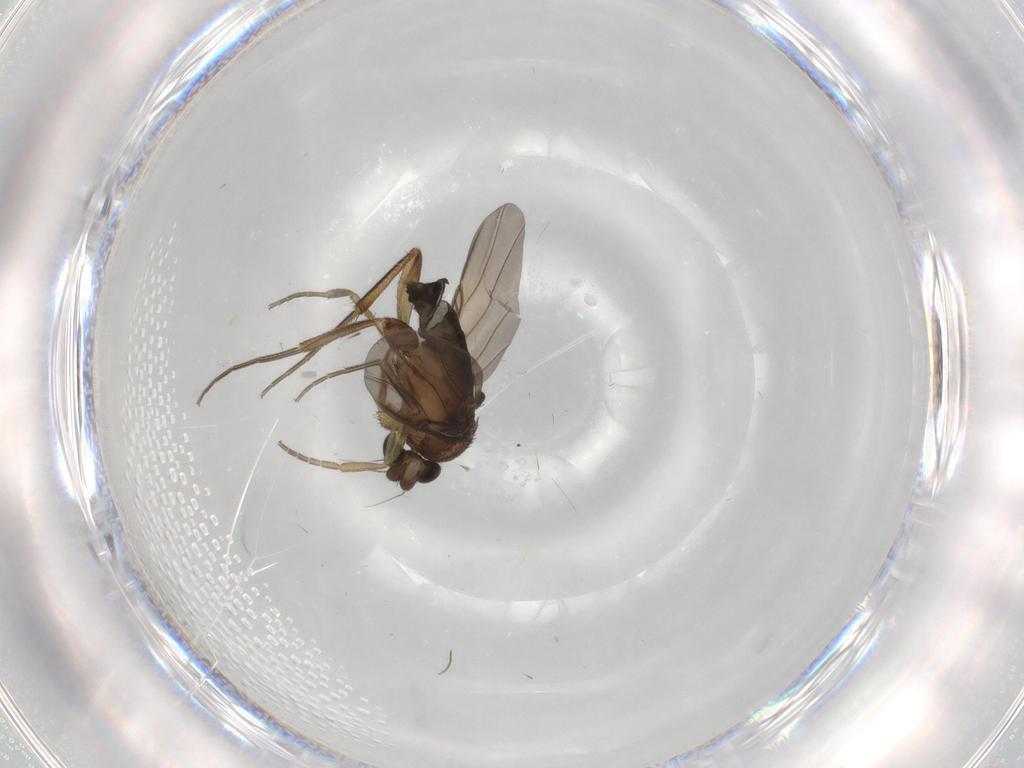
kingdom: Animalia
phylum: Arthropoda
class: Insecta
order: Diptera
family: Phoridae
